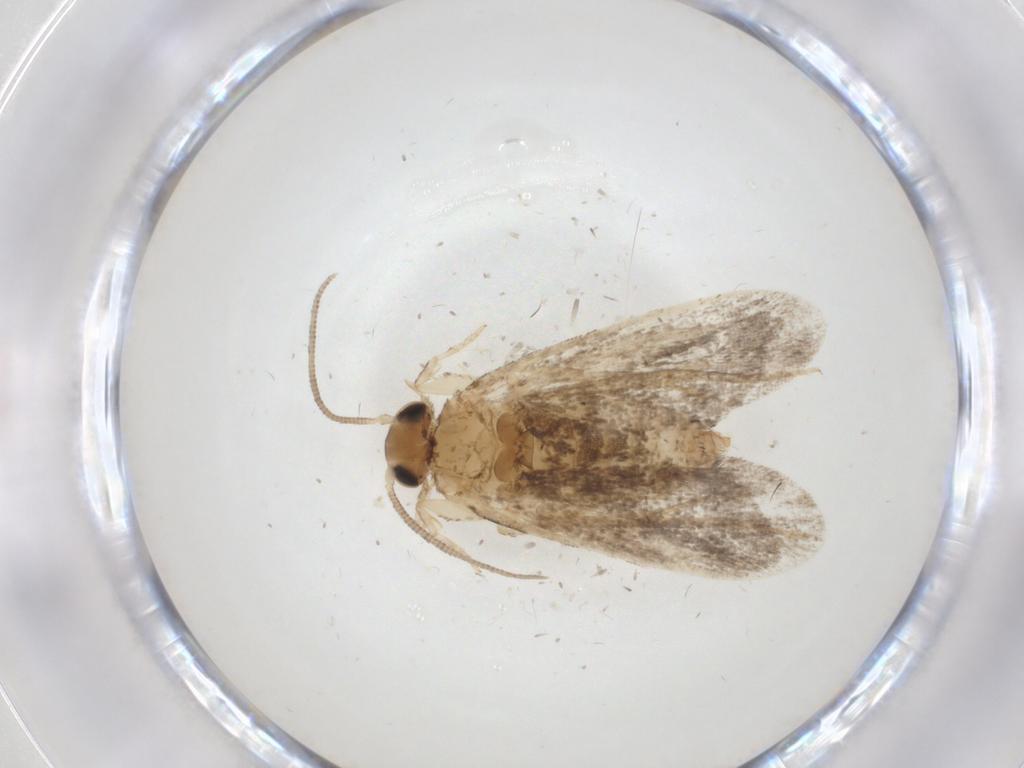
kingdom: Animalia
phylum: Arthropoda
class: Insecta
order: Lepidoptera
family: Dryadaulidae
